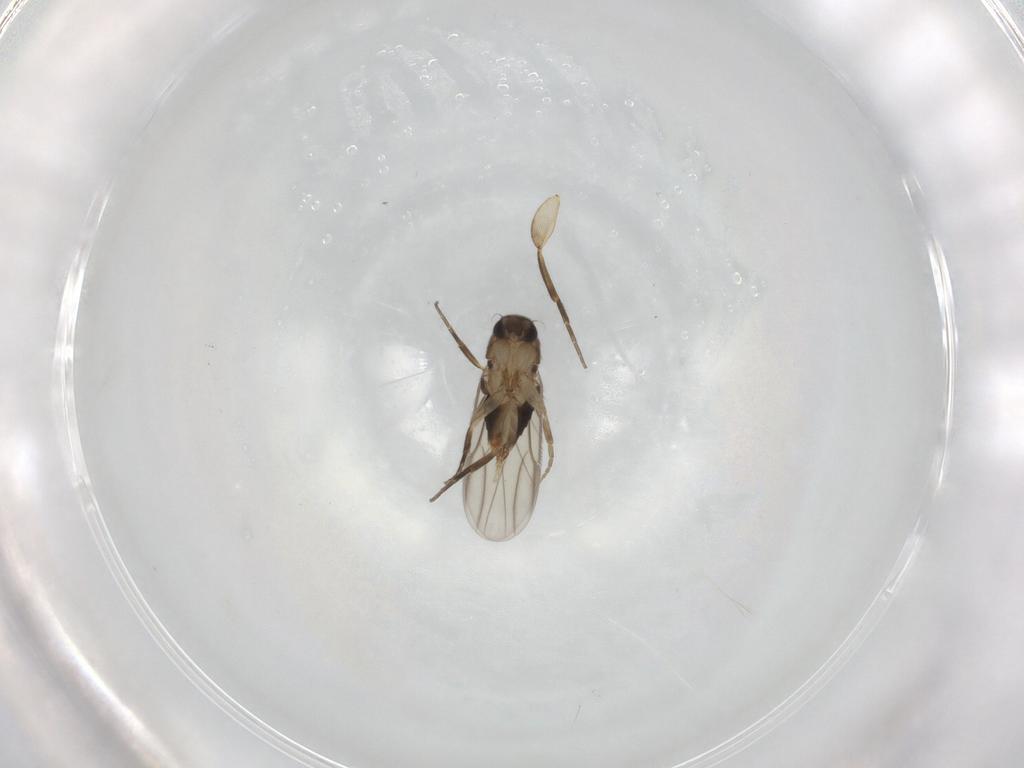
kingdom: Animalia
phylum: Arthropoda
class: Insecta
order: Diptera
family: Phoridae
